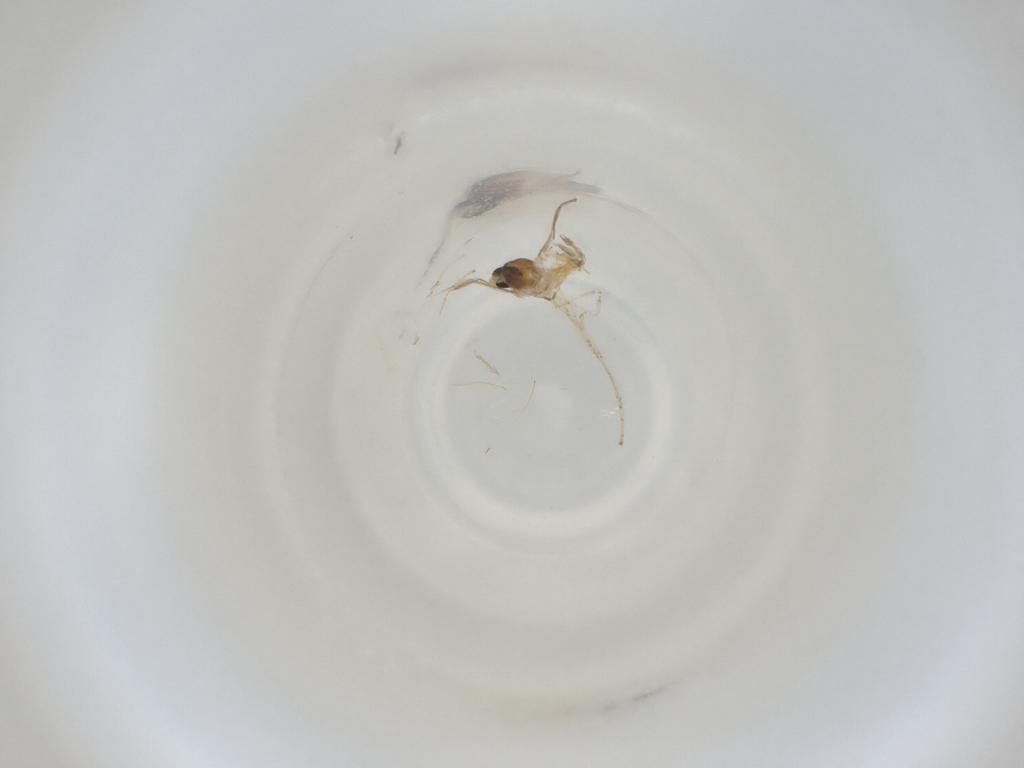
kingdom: Animalia
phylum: Arthropoda
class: Insecta
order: Diptera
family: Cecidomyiidae
